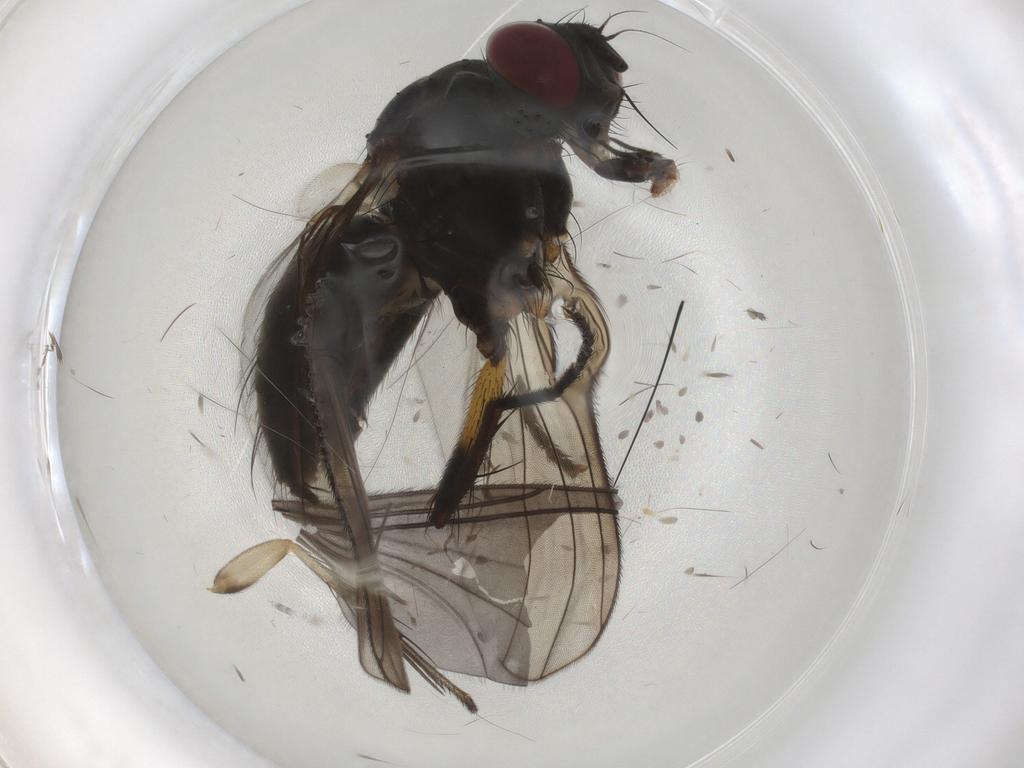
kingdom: Animalia
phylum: Arthropoda
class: Insecta
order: Diptera
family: Muscidae
